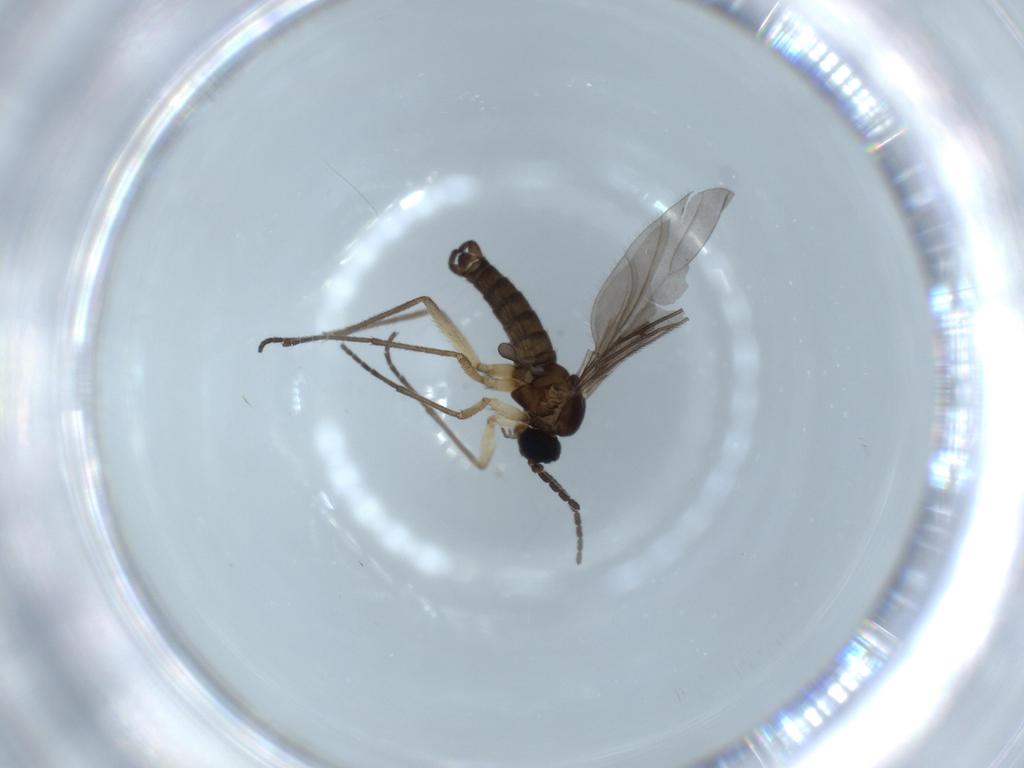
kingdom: Animalia
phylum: Arthropoda
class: Insecta
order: Diptera
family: Sciaridae
